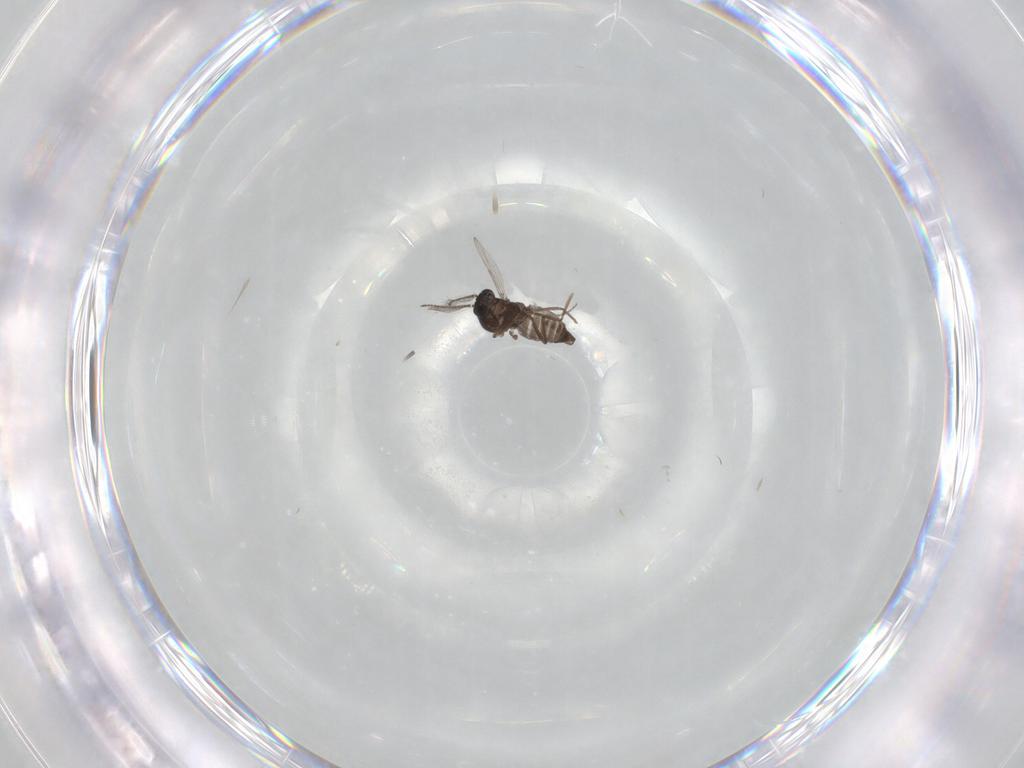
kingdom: Animalia
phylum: Arthropoda
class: Insecta
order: Diptera
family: Ceratopogonidae
